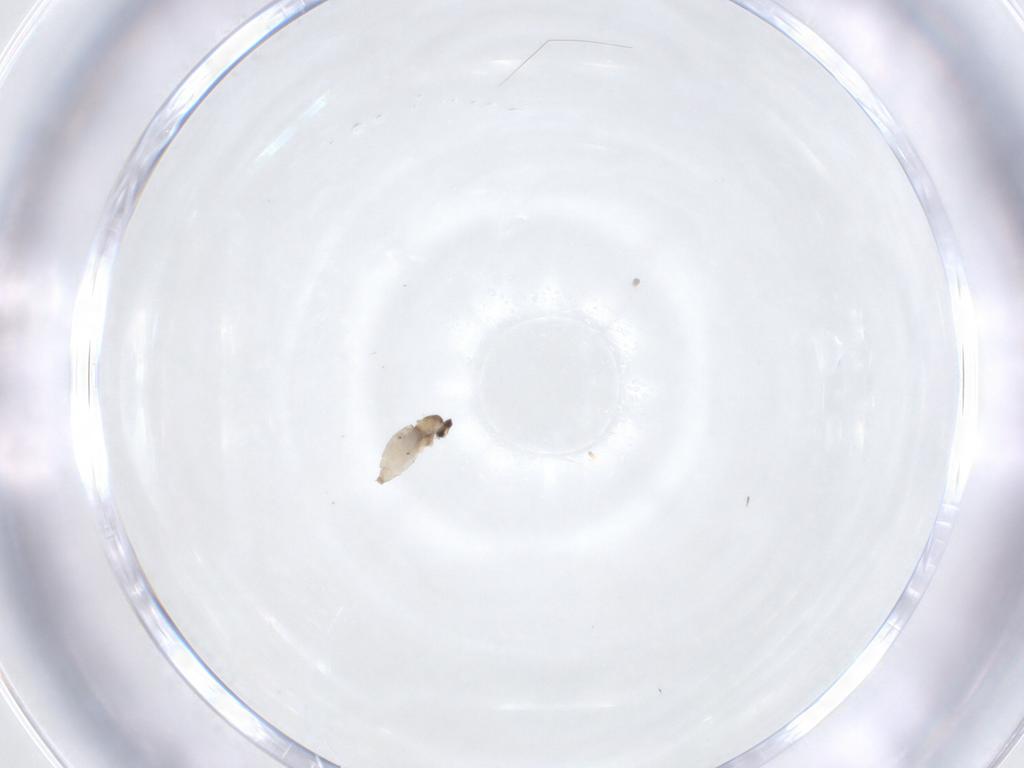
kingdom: Animalia
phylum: Arthropoda
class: Insecta
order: Diptera
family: Cecidomyiidae
